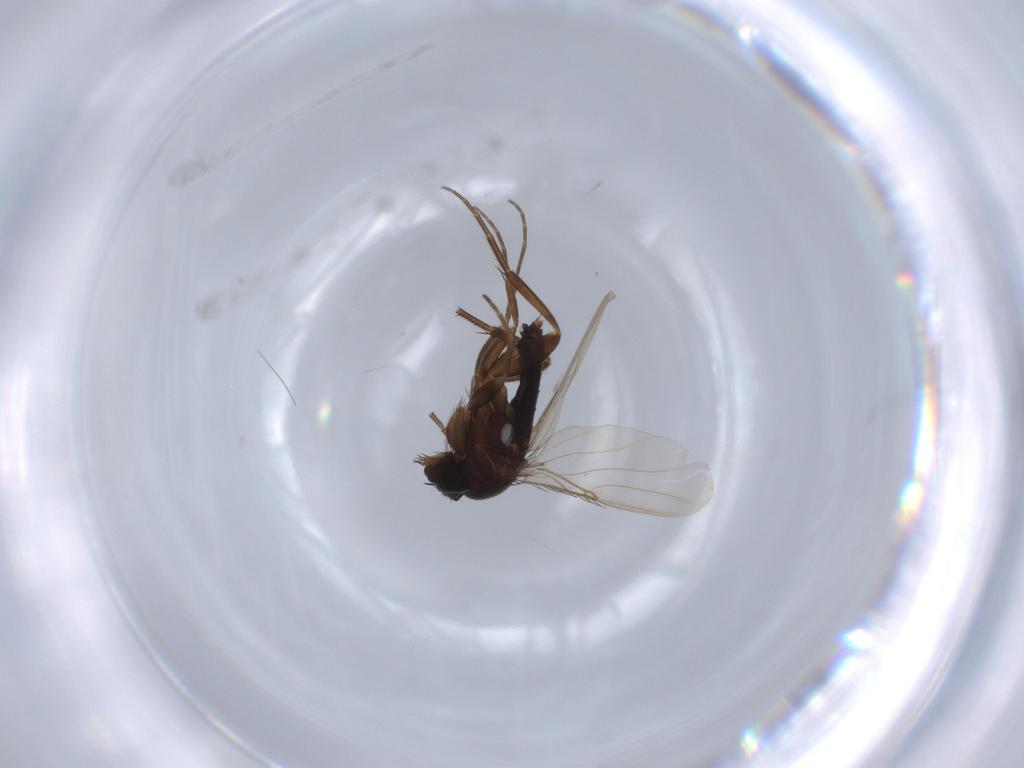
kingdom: Animalia
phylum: Arthropoda
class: Insecta
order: Diptera
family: Phoridae
